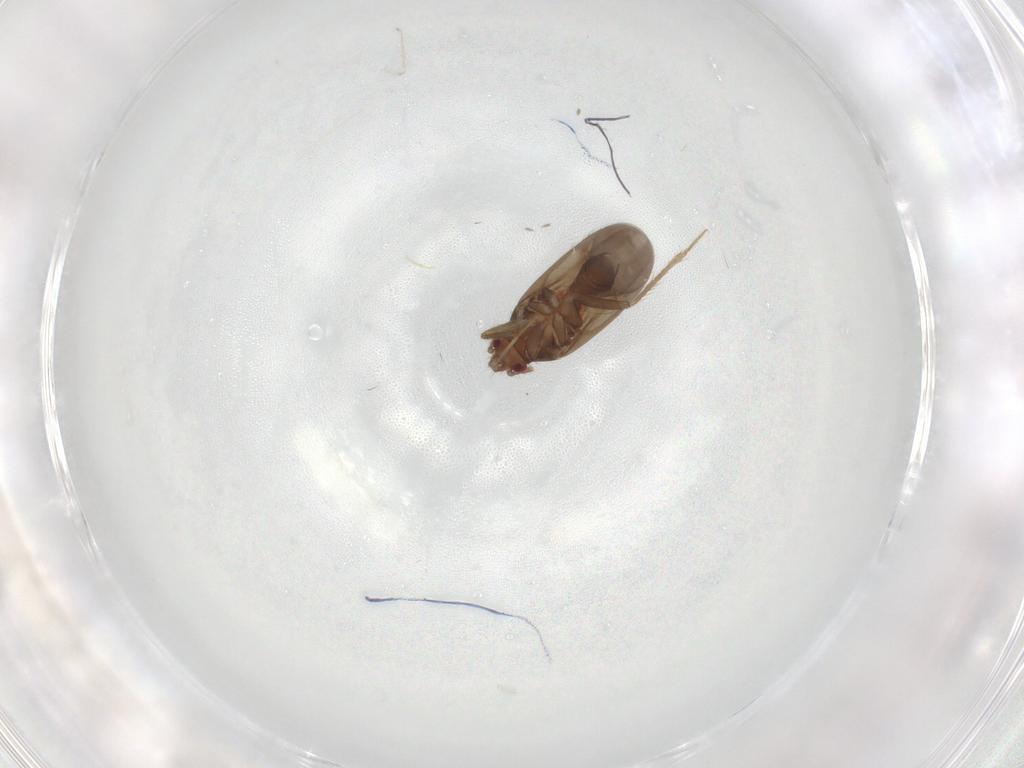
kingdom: Animalia
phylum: Arthropoda
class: Insecta
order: Hemiptera
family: Ceratocombidae
